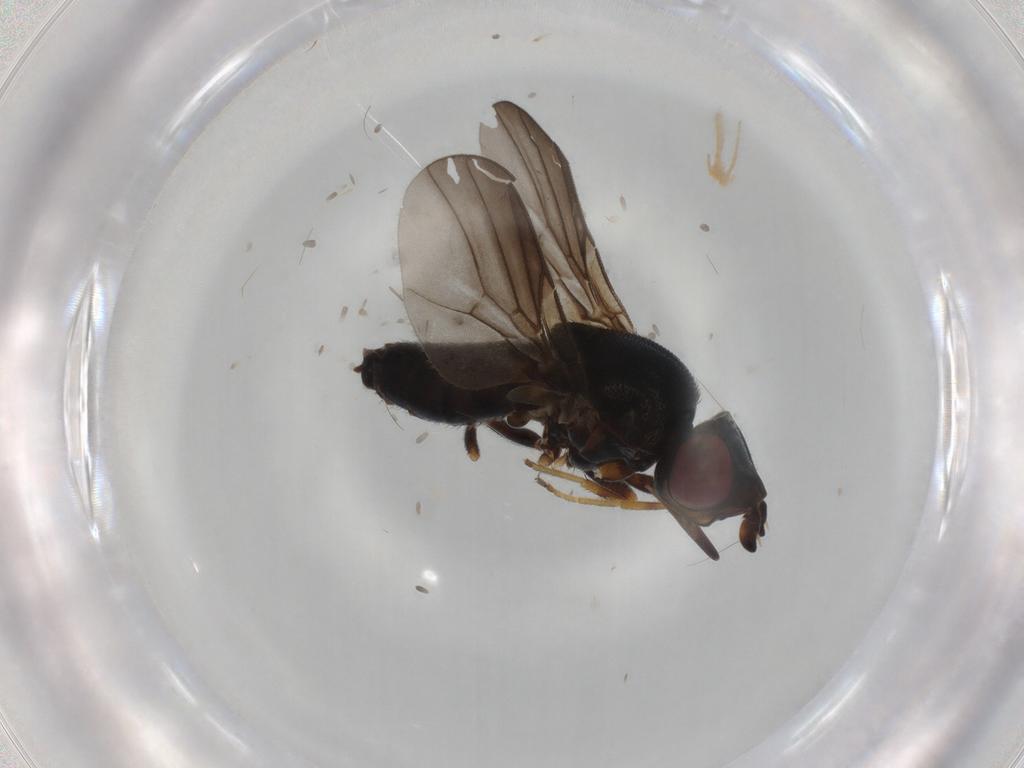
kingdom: Animalia
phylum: Arthropoda
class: Insecta
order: Diptera
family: Chloropidae
